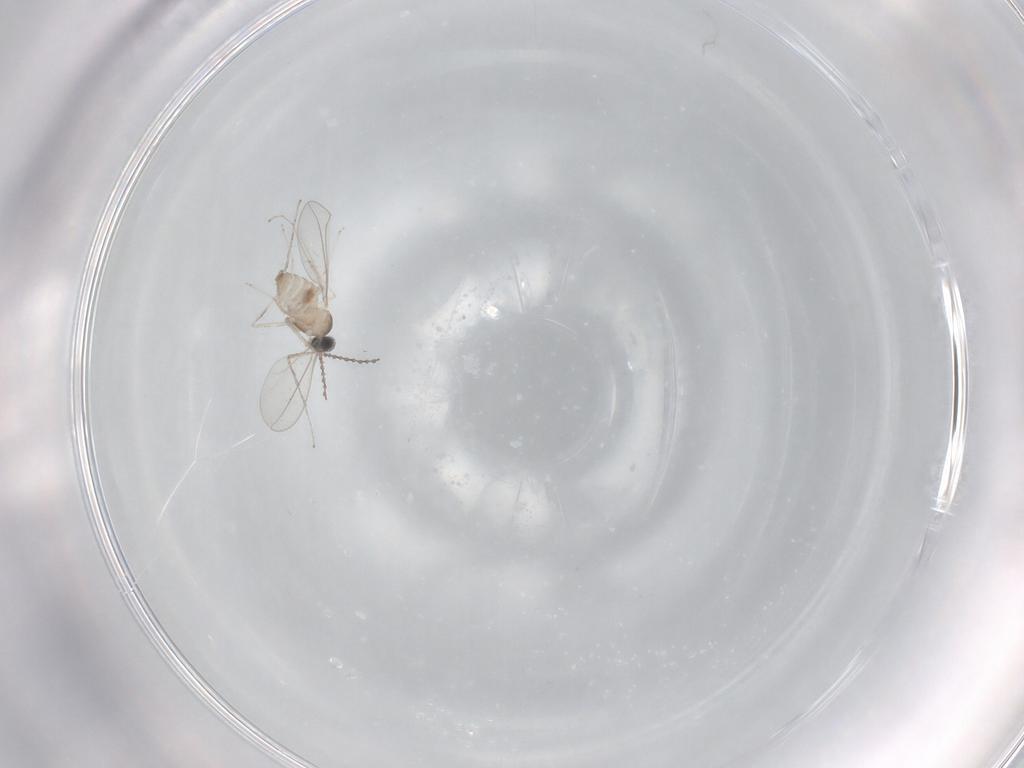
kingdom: Animalia
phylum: Arthropoda
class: Insecta
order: Diptera
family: Cecidomyiidae
